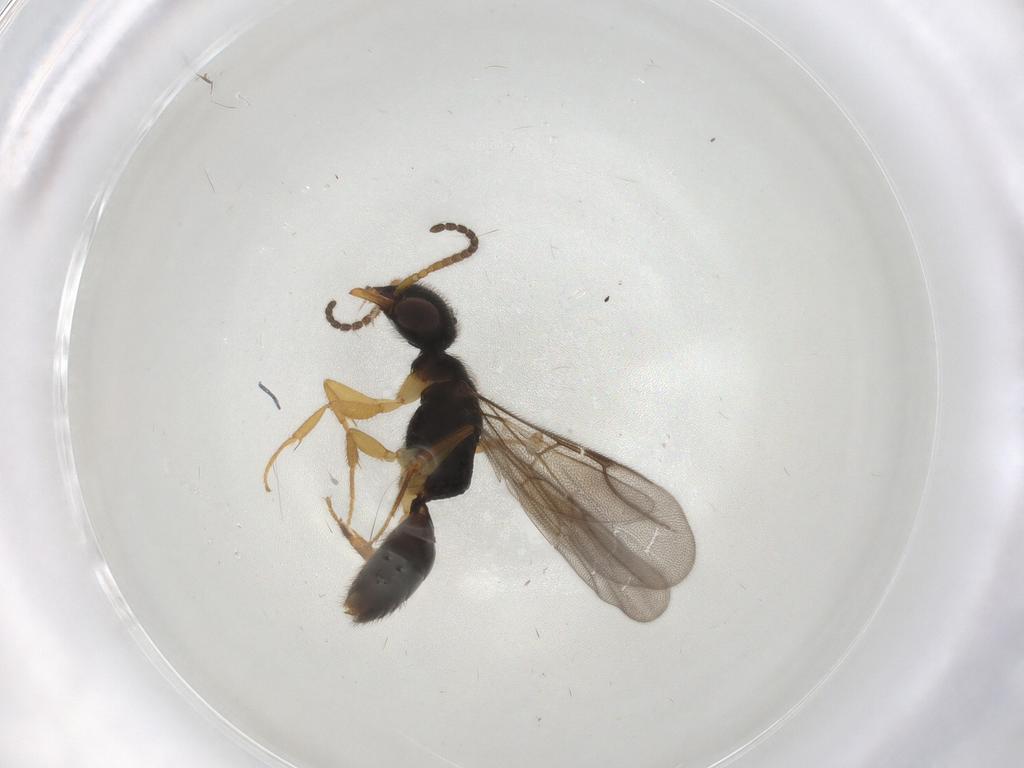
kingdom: Animalia
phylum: Arthropoda
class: Insecta
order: Hymenoptera
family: Bethylidae
